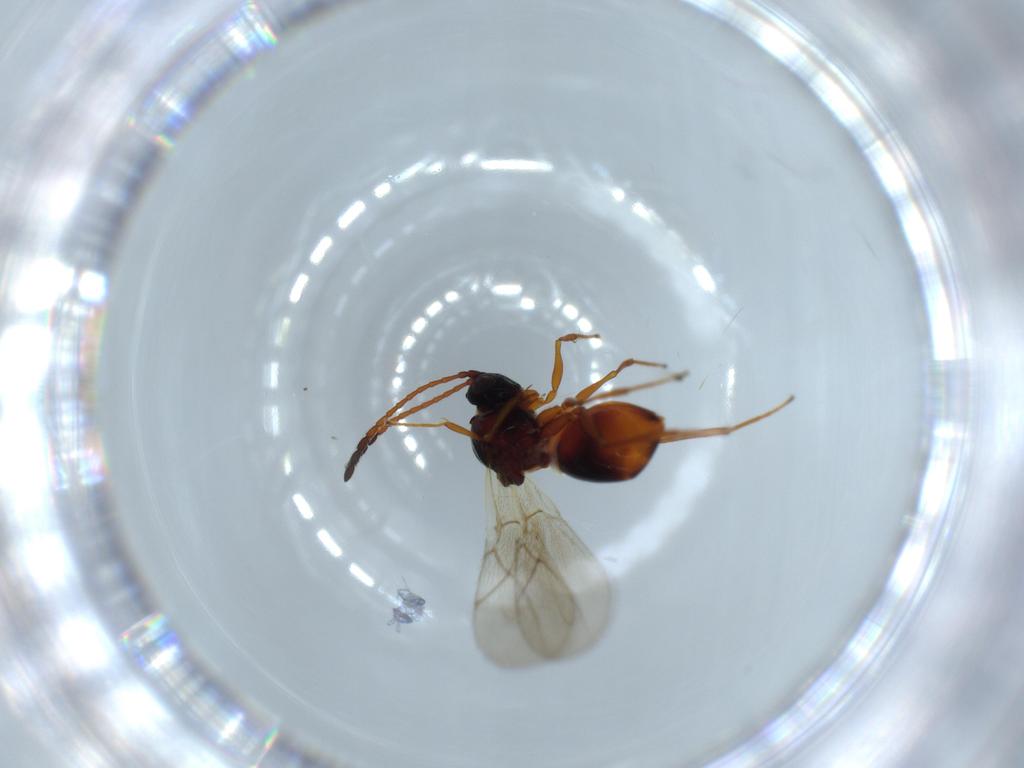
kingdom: Animalia
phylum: Arthropoda
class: Insecta
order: Hymenoptera
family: Figitidae
